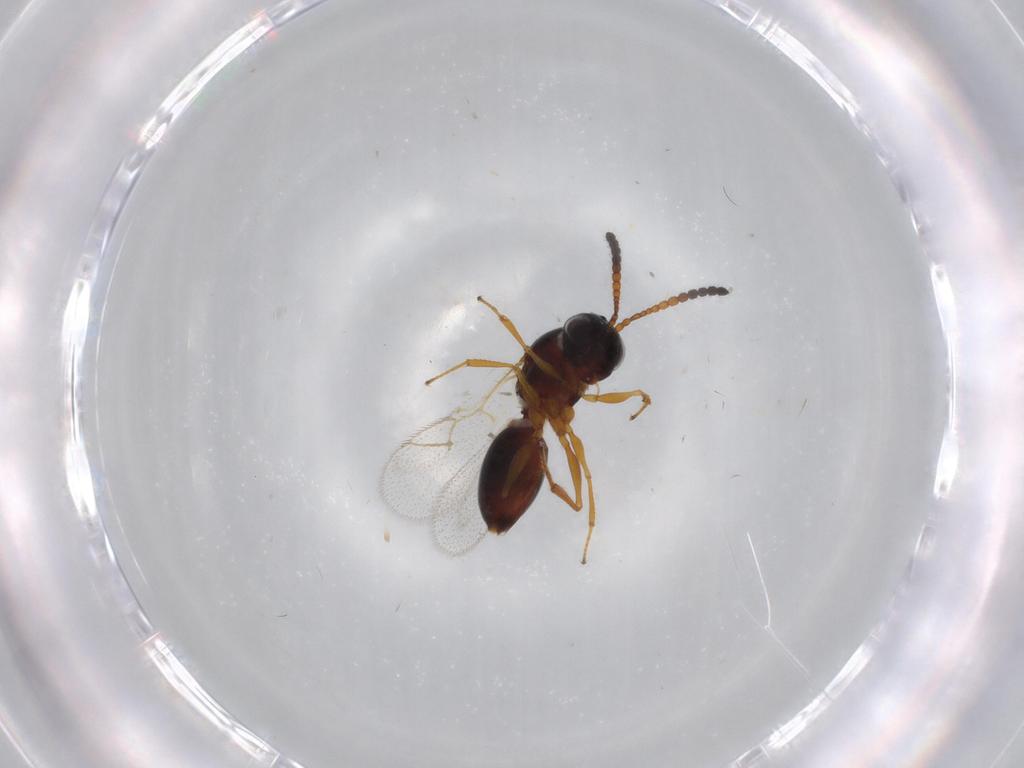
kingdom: Animalia
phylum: Arthropoda
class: Insecta
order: Hymenoptera
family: Figitidae
